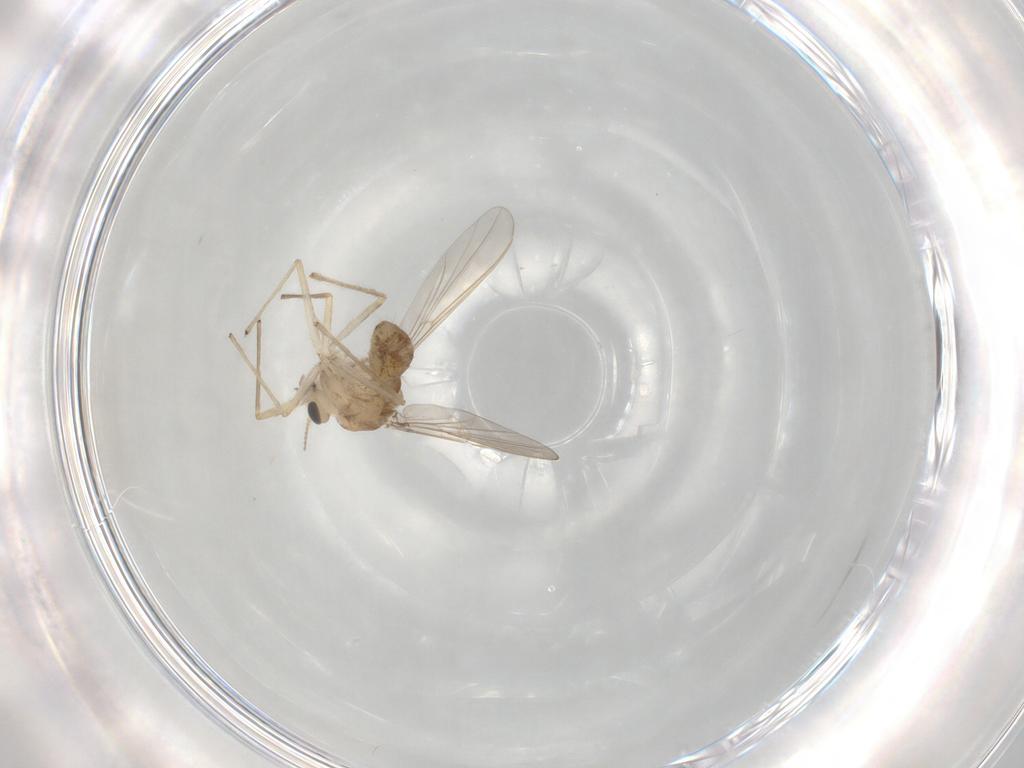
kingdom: Animalia
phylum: Arthropoda
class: Insecta
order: Diptera
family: Chironomidae
